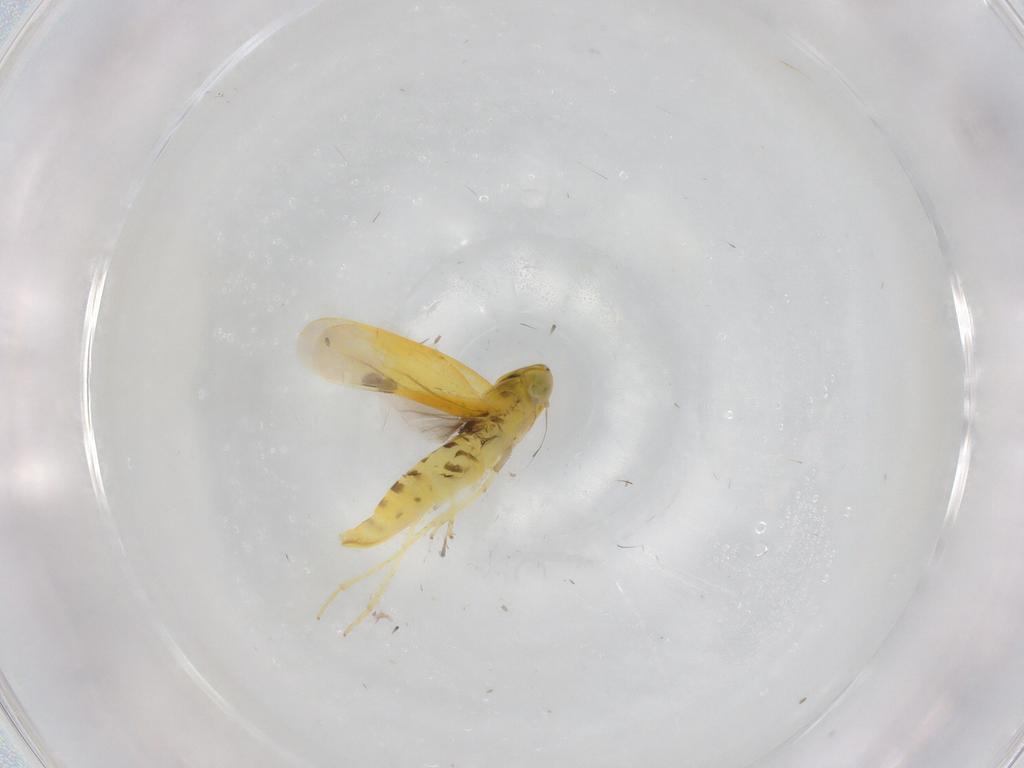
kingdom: Animalia
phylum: Arthropoda
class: Insecta
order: Hemiptera
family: Cicadellidae
